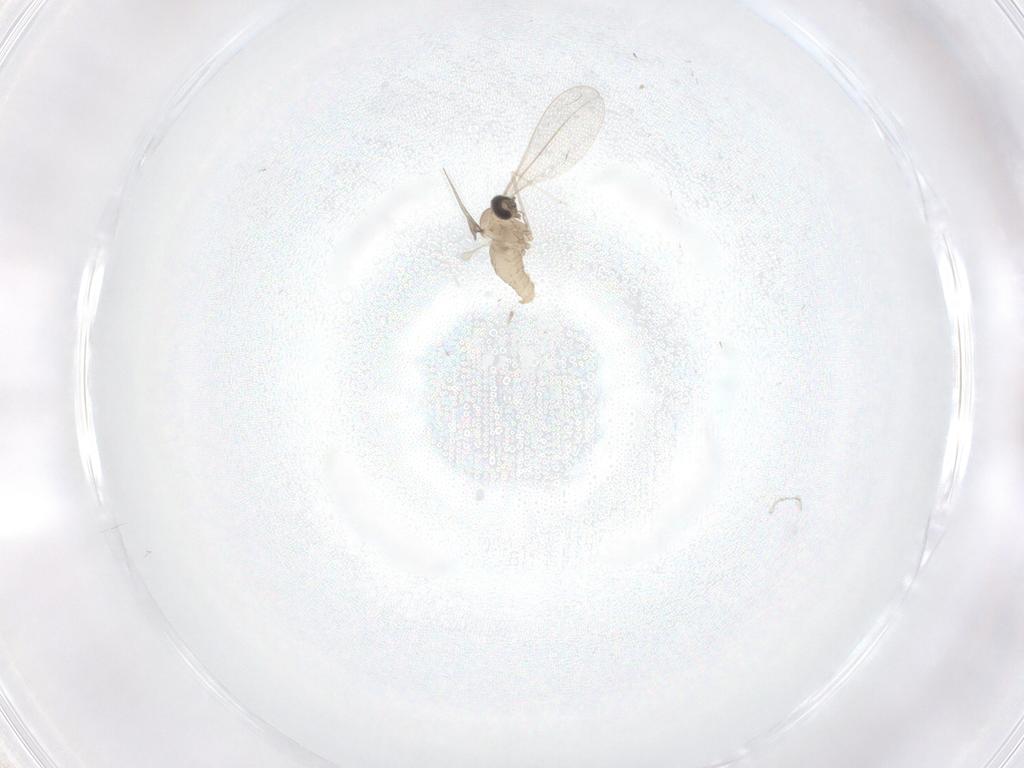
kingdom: Animalia
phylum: Arthropoda
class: Insecta
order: Diptera
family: Cecidomyiidae
